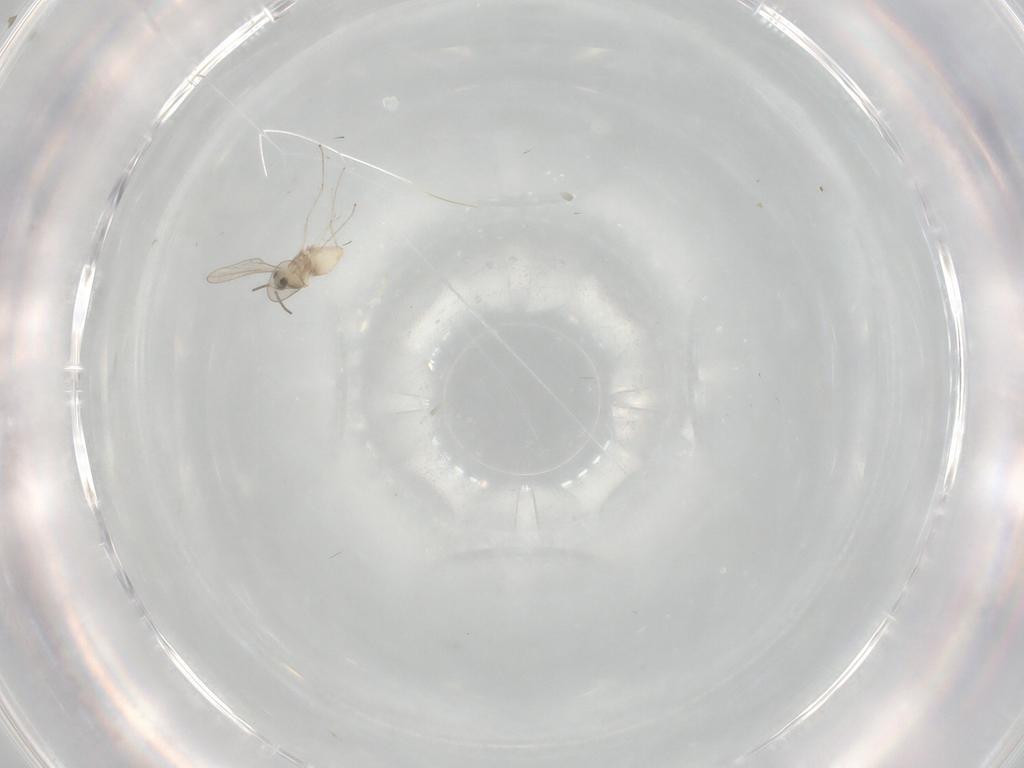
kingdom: Animalia
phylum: Arthropoda
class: Insecta
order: Diptera
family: Cecidomyiidae
